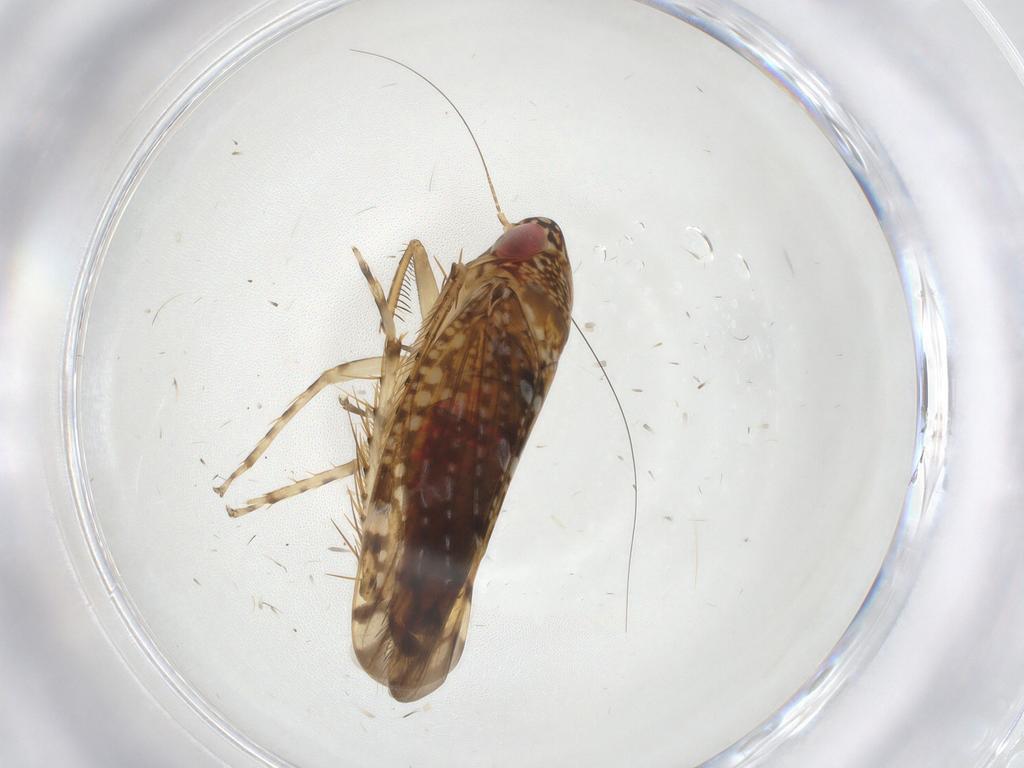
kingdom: Animalia
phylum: Arthropoda
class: Insecta
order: Hemiptera
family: Cicadellidae
